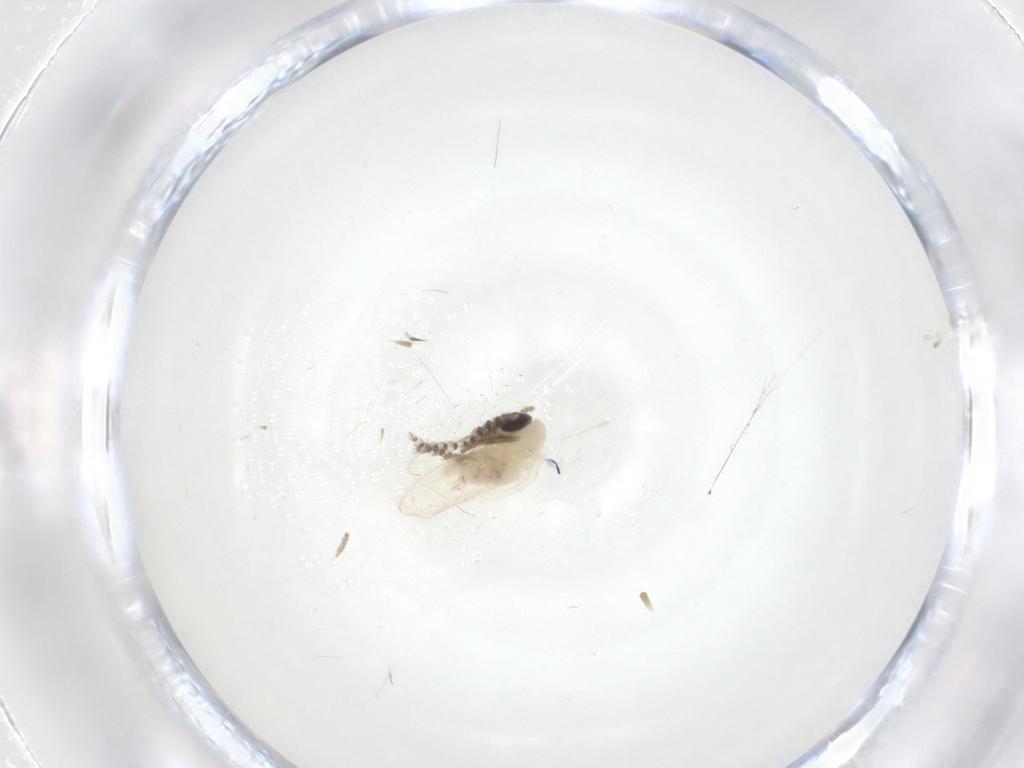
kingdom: Animalia
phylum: Arthropoda
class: Insecta
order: Diptera
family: Psychodidae
